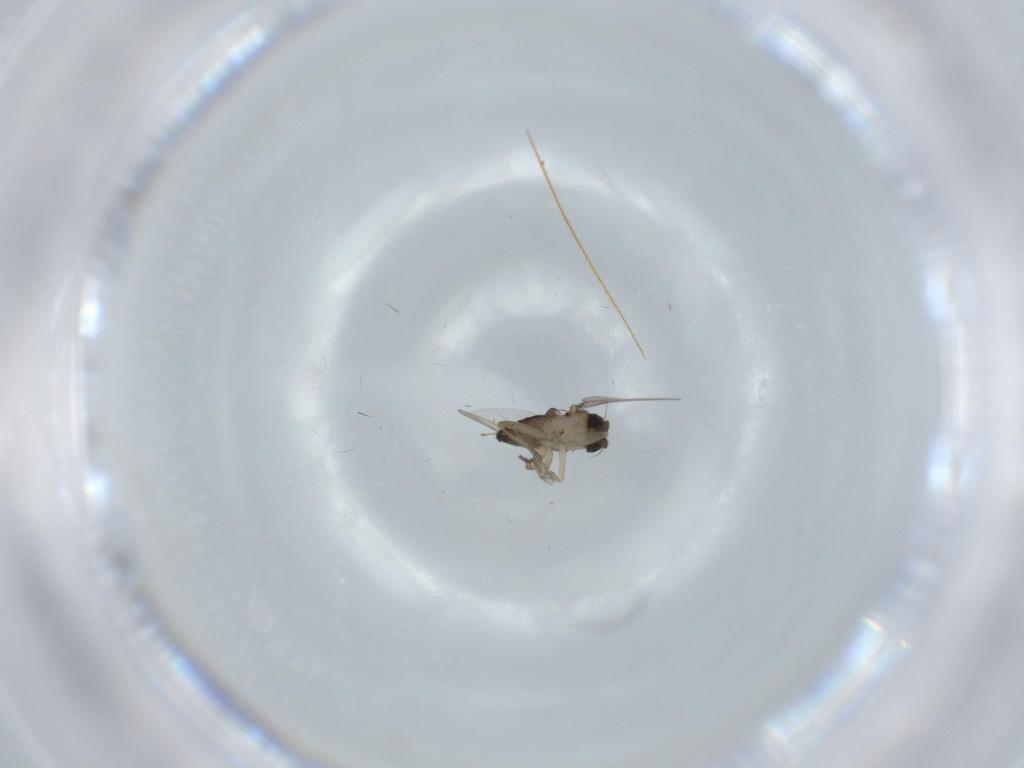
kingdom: Animalia
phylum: Arthropoda
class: Insecta
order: Diptera
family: Phoridae
